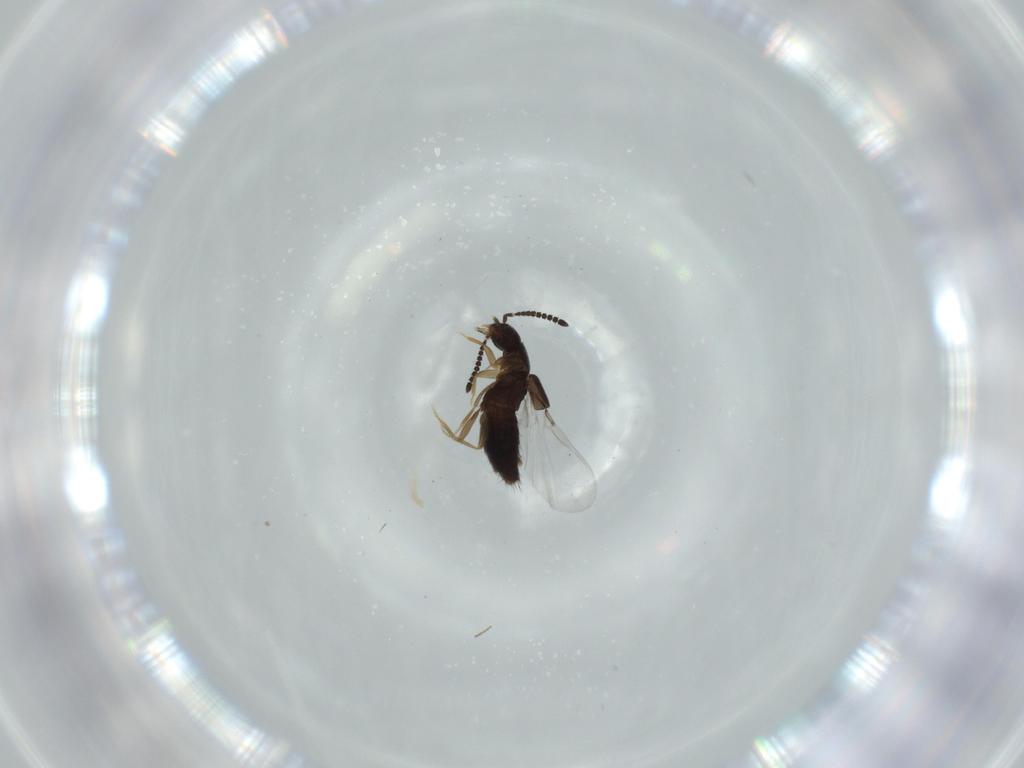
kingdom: Animalia
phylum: Arthropoda
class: Insecta
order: Coleoptera
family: Staphylinidae
